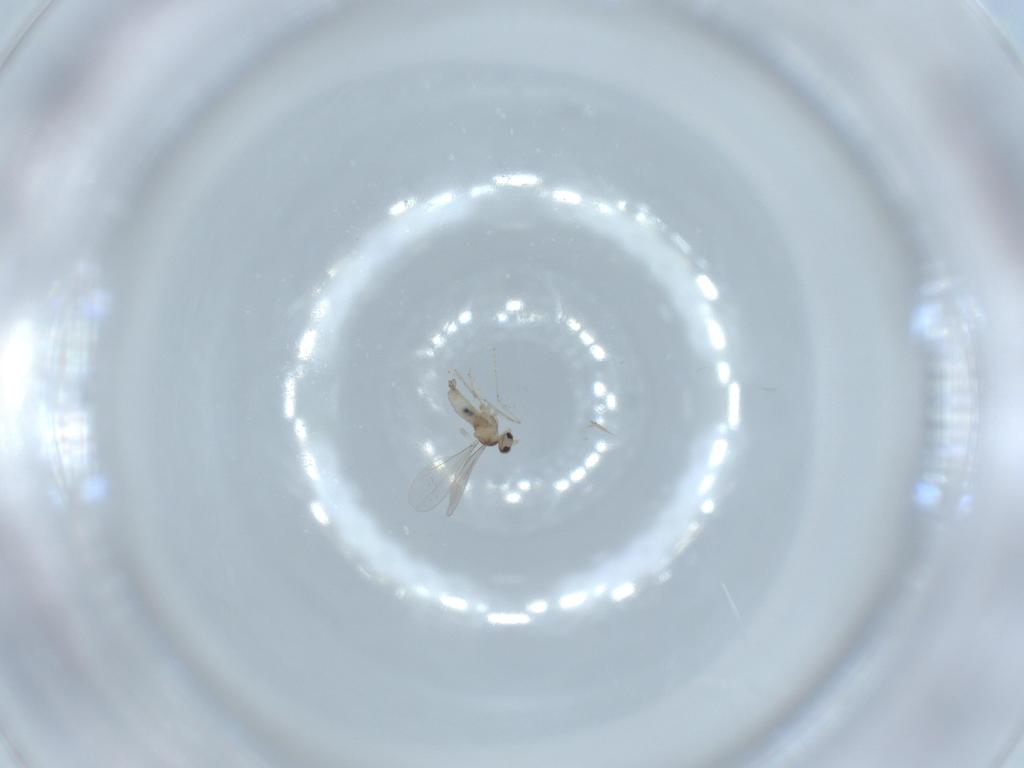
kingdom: Animalia
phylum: Arthropoda
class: Insecta
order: Diptera
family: Cecidomyiidae
